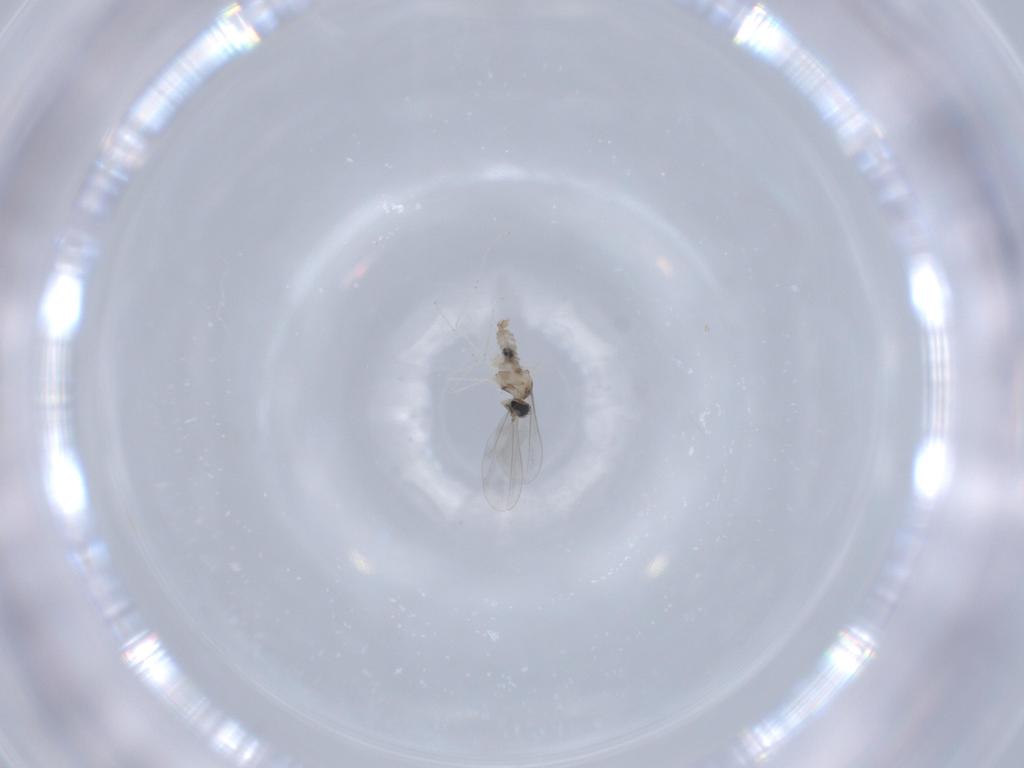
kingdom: Animalia
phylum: Arthropoda
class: Insecta
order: Diptera
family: Cecidomyiidae
